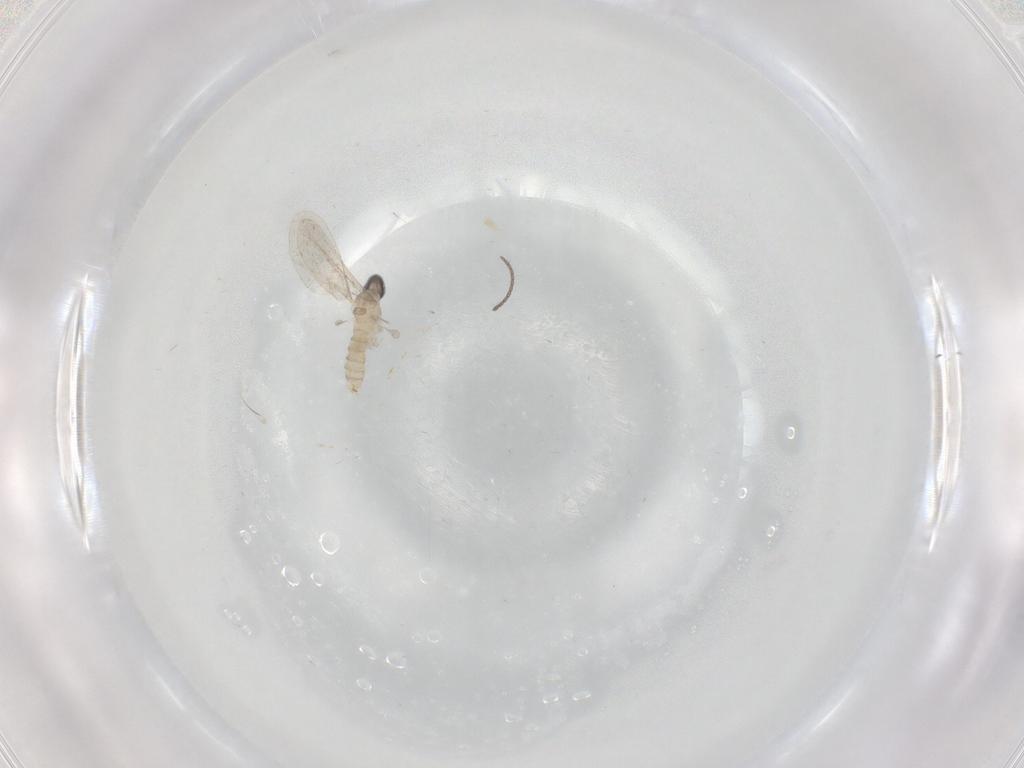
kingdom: Animalia
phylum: Arthropoda
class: Insecta
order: Diptera
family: Cecidomyiidae
